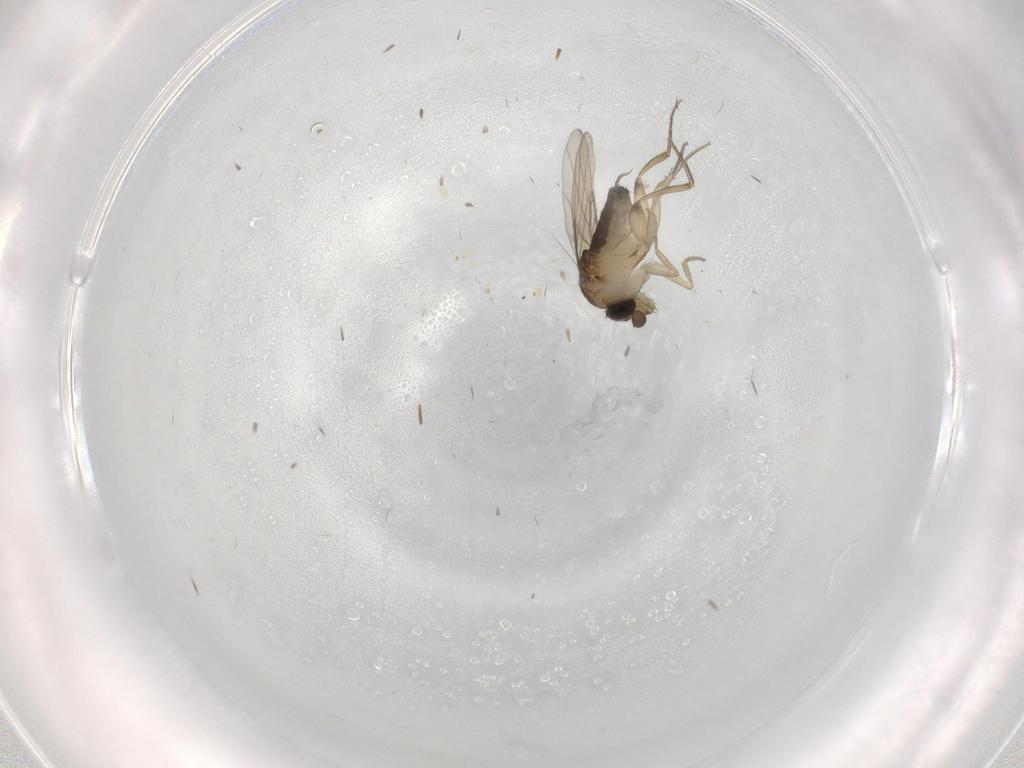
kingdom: Animalia
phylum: Arthropoda
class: Insecta
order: Diptera
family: Phoridae
